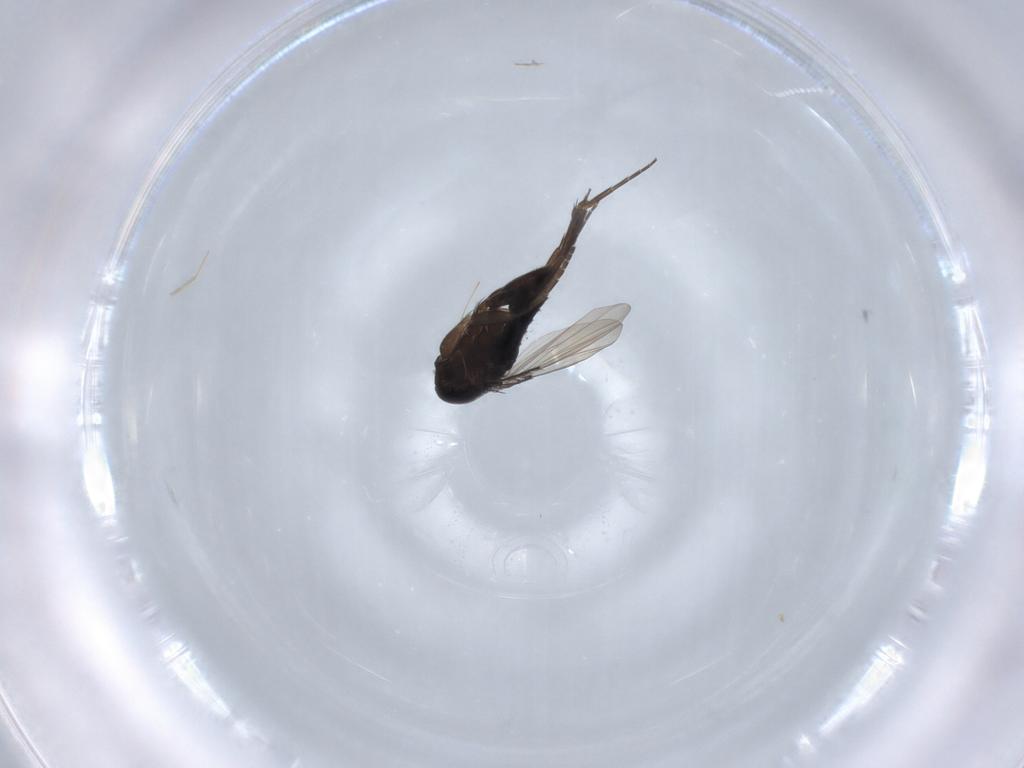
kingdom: Animalia
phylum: Arthropoda
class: Insecta
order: Diptera
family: Phoridae
